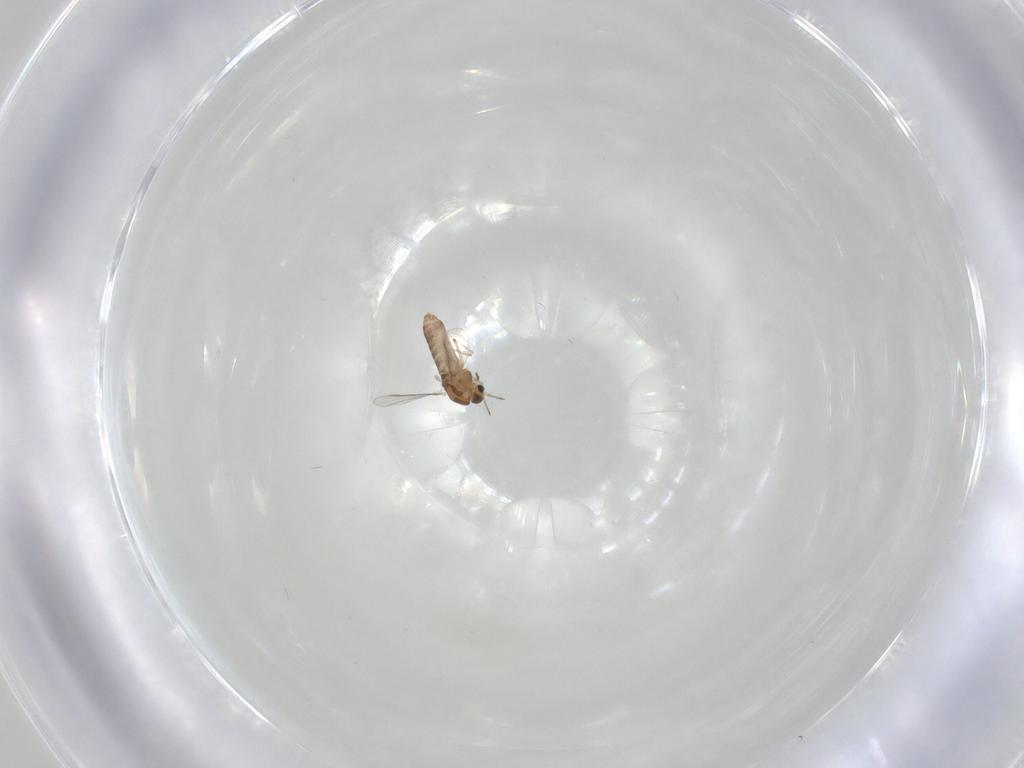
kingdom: Animalia
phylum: Arthropoda
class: Insecta
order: Diptera
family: Chironomidae
